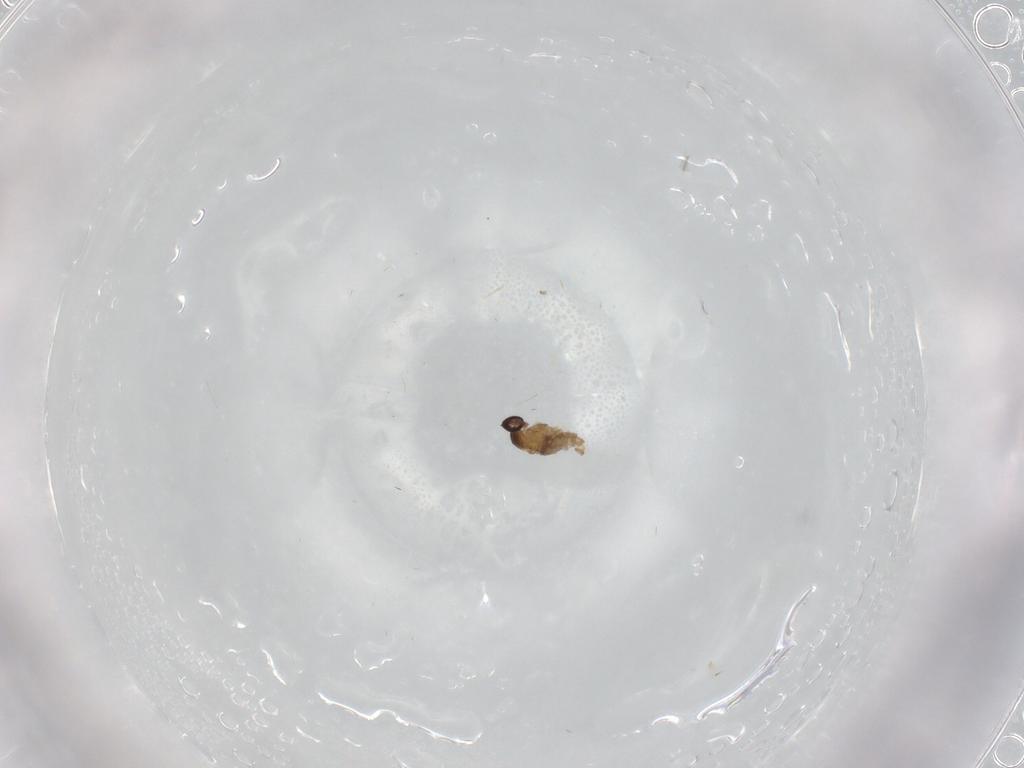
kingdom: Animalia
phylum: Arthropoda
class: Insecta
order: Diptera
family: Cecidomyiidae
